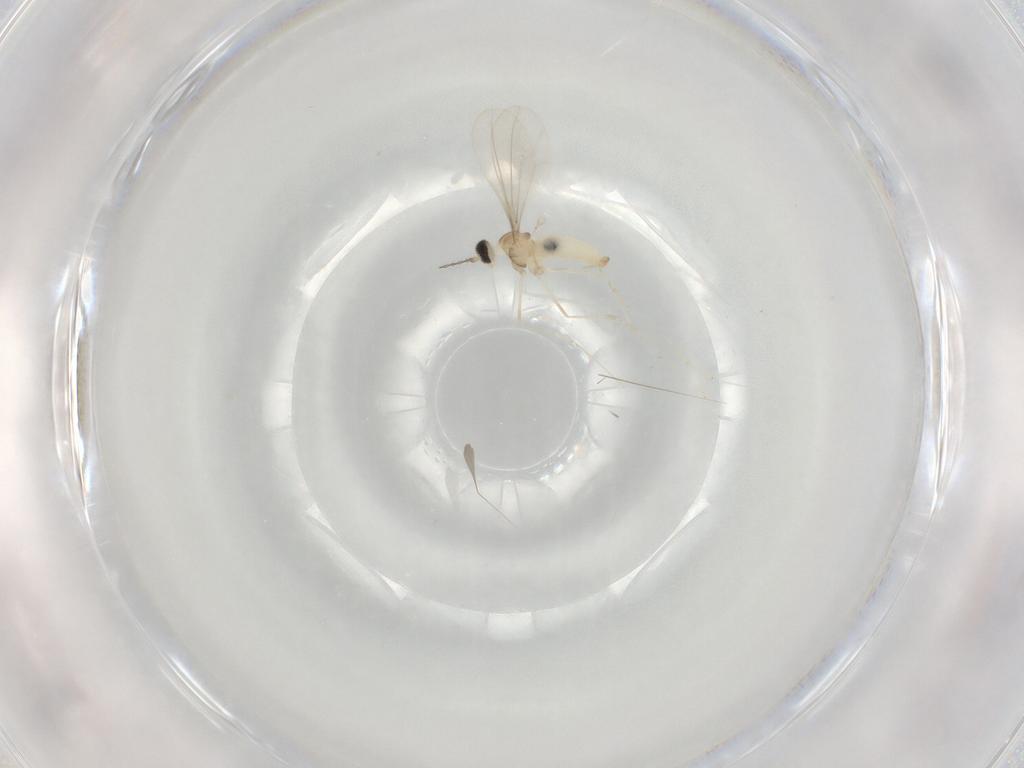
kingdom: Animalia
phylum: Arthropoda
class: Insecta
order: Diptera
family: Cecidomyiidae
